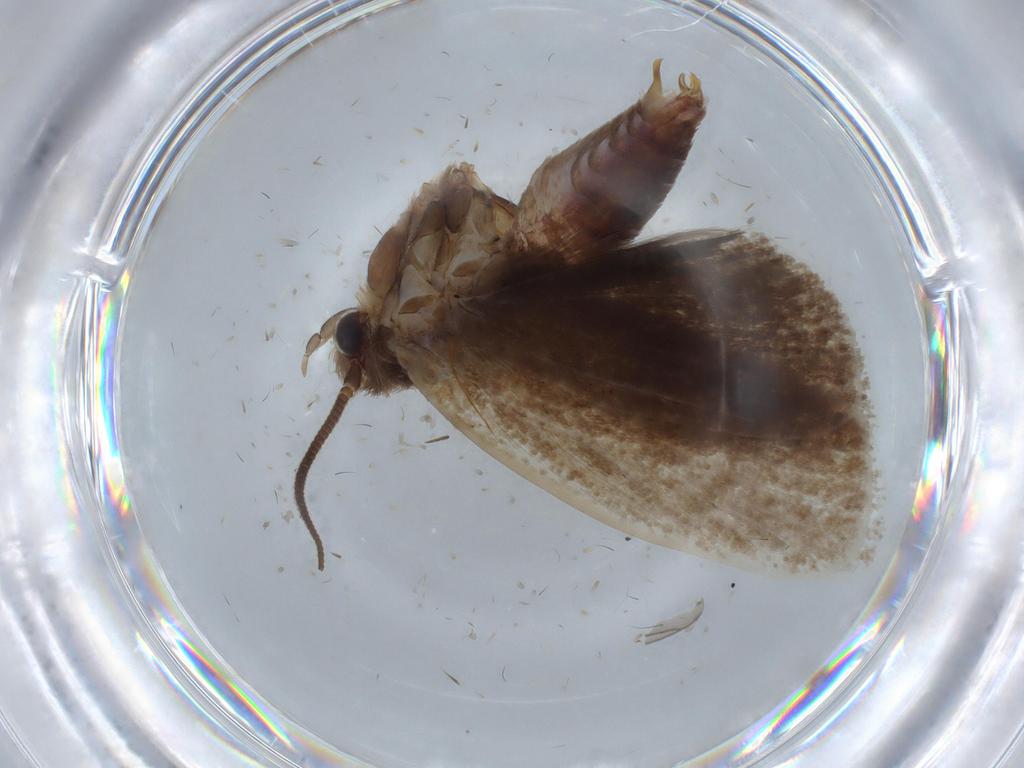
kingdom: Animalia
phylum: Arthropoda
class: Insecta
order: Lepidoptera
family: Tineidae
